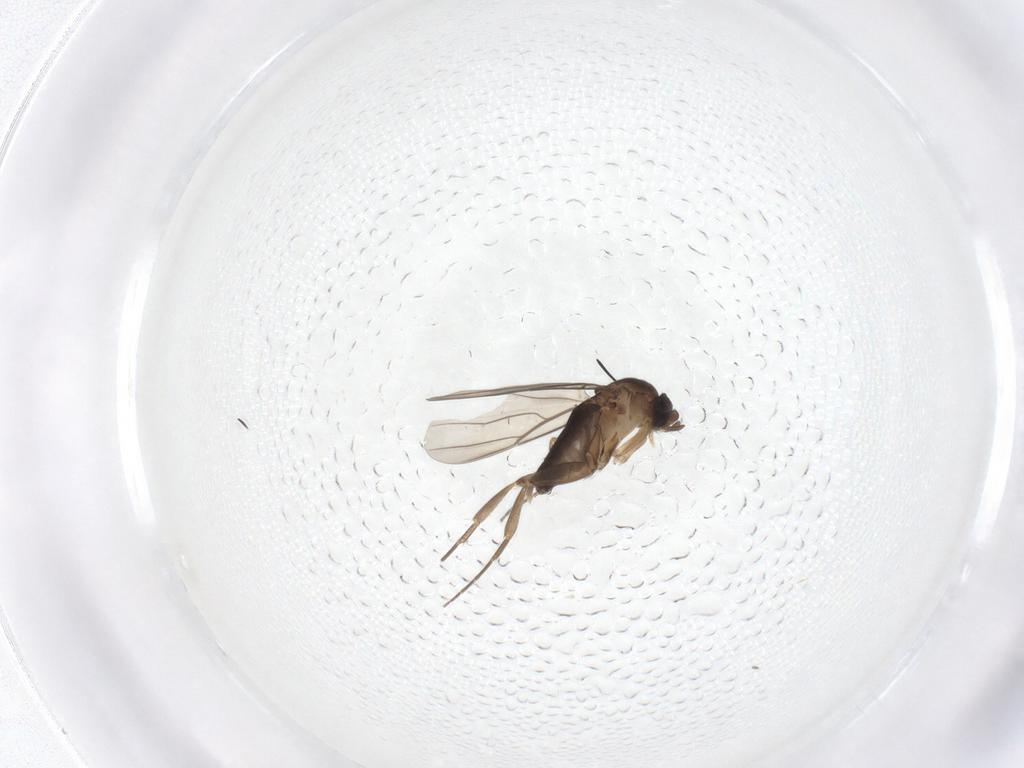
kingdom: Animalia
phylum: Arthropoda
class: Insecta
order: Diptera
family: Phoridae
